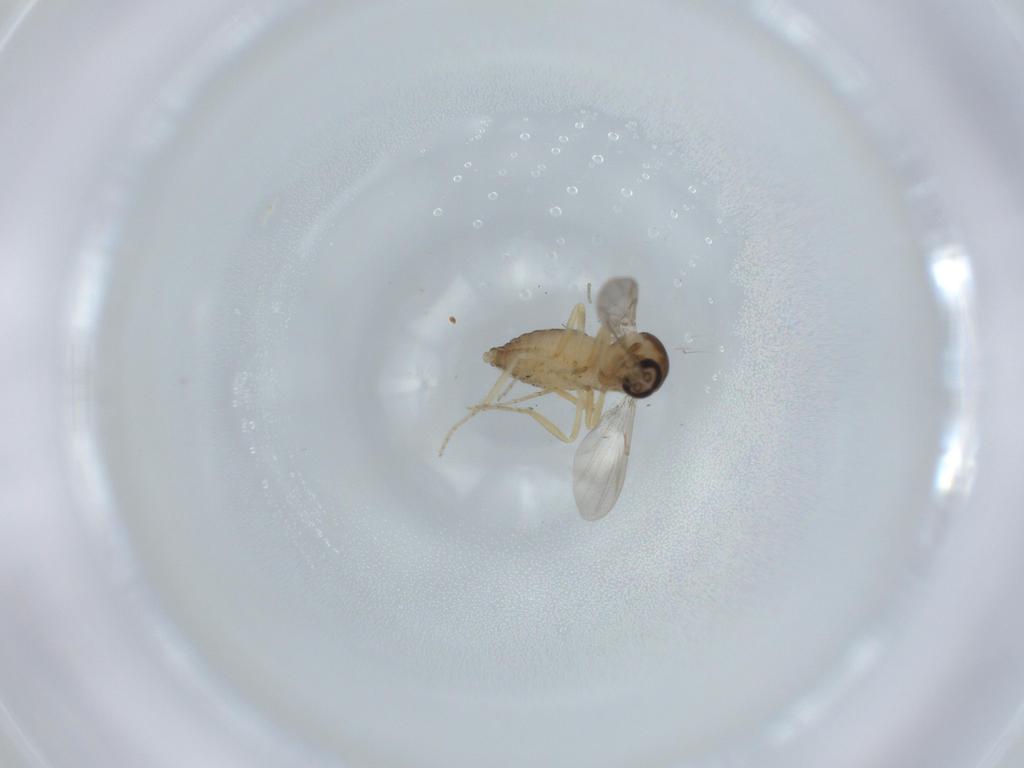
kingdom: Animalia
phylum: Arthropoda
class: Insecta
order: Diptera
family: Ceratopogonidae
